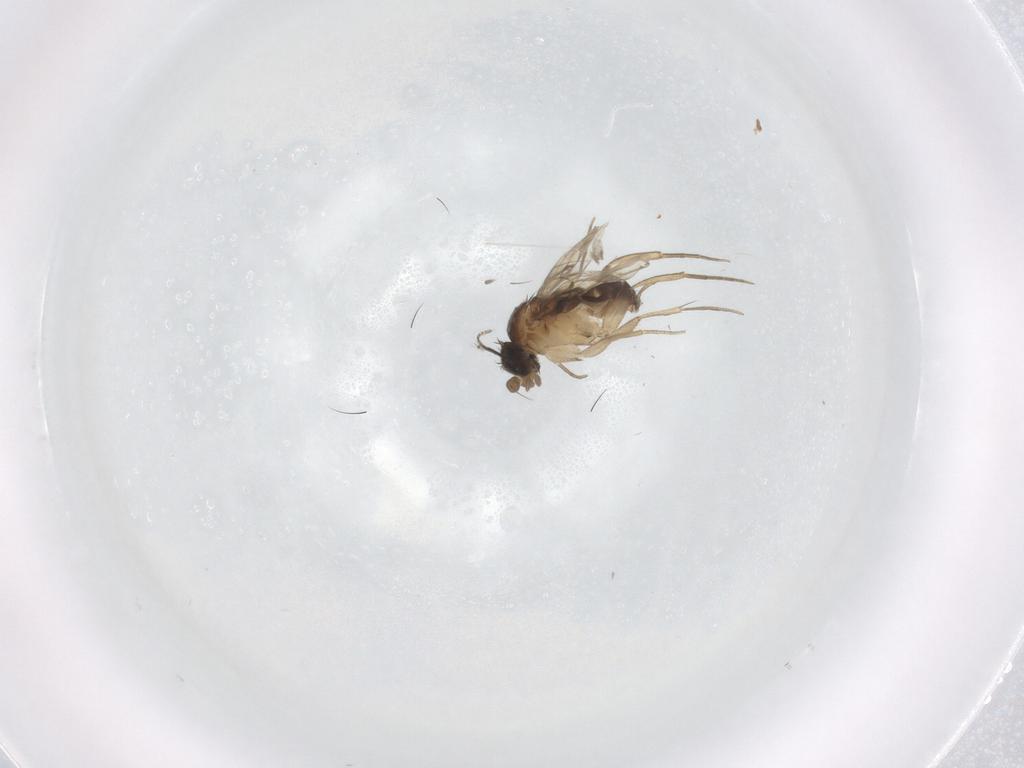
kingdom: Animalia
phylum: Arthropoda
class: Insecta
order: Diptera
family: Phoridae
